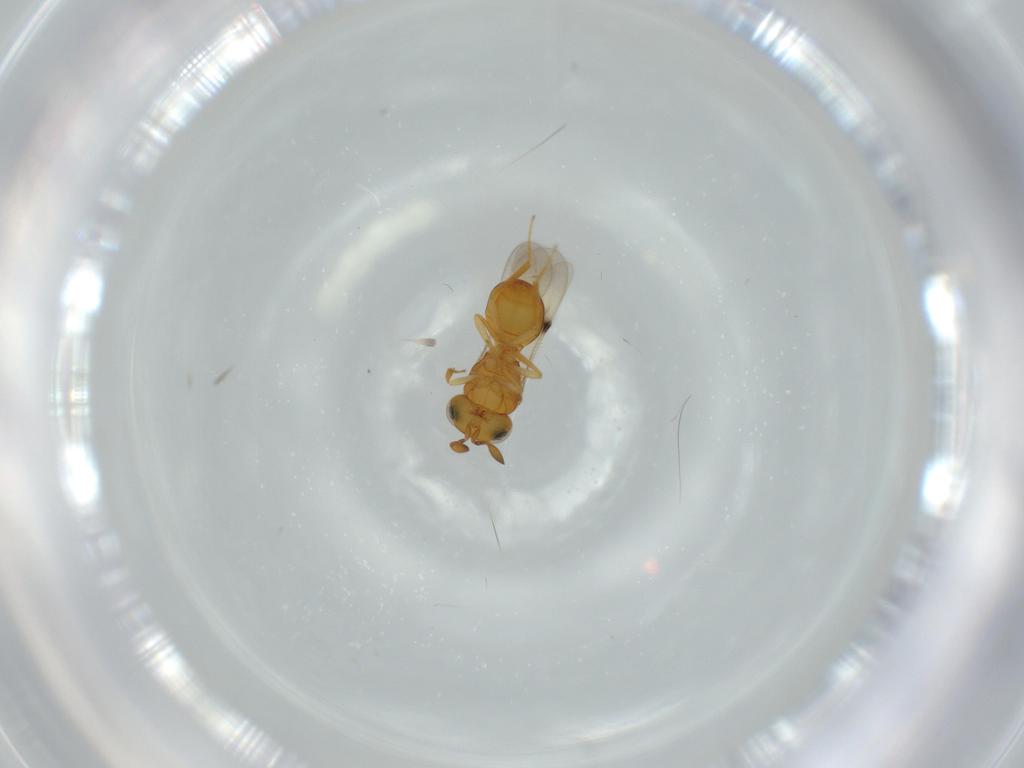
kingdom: Animalia
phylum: Arthropoda
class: Insecta
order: Hymenoptera
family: Scelionidae
